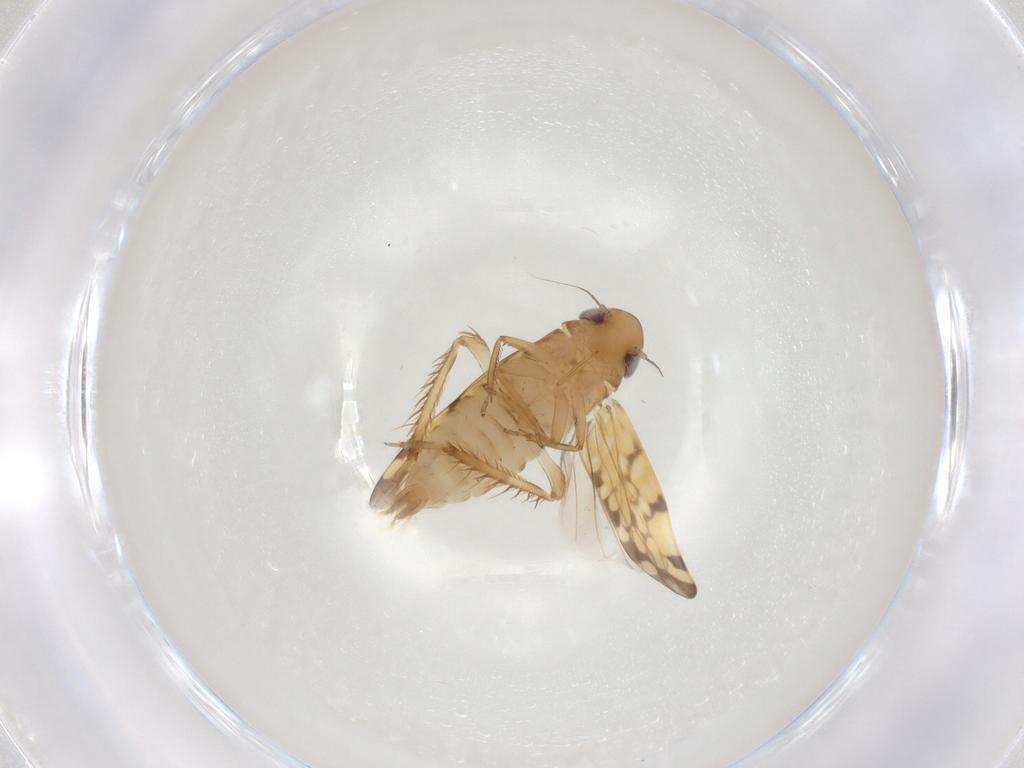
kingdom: Animalia
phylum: Arthropoda
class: Insecta
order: Hemiptera
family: Cicadellidae
